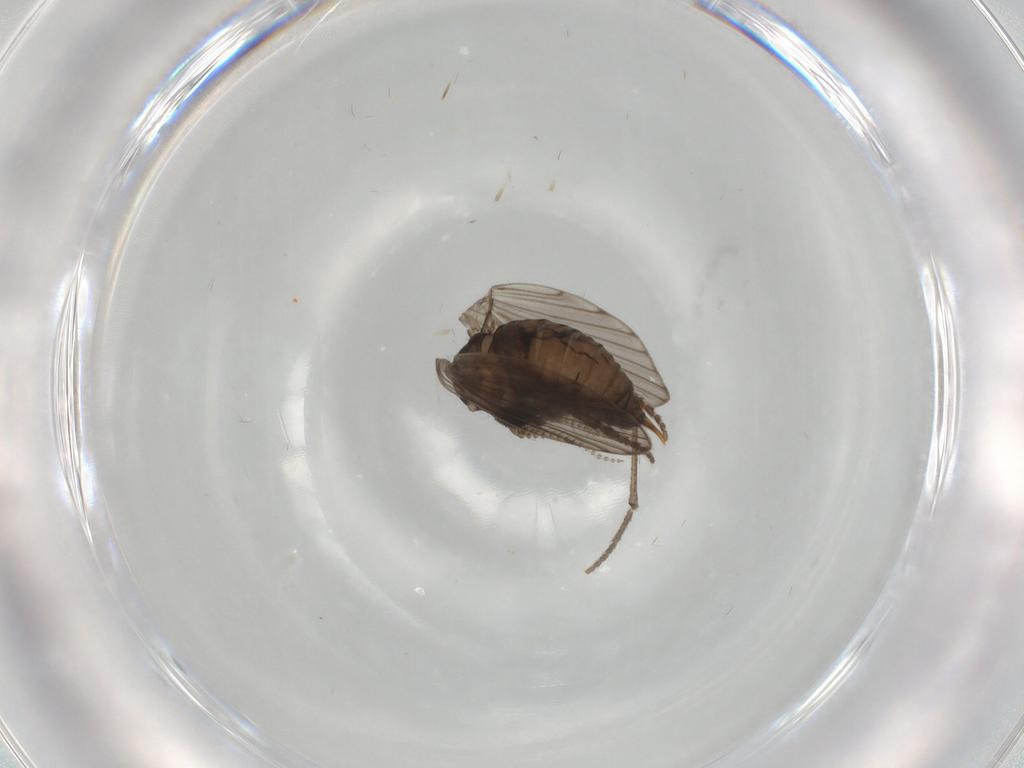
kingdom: Animalia
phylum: Arthropoda
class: Insecta
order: Diptera
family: Psychodidae
